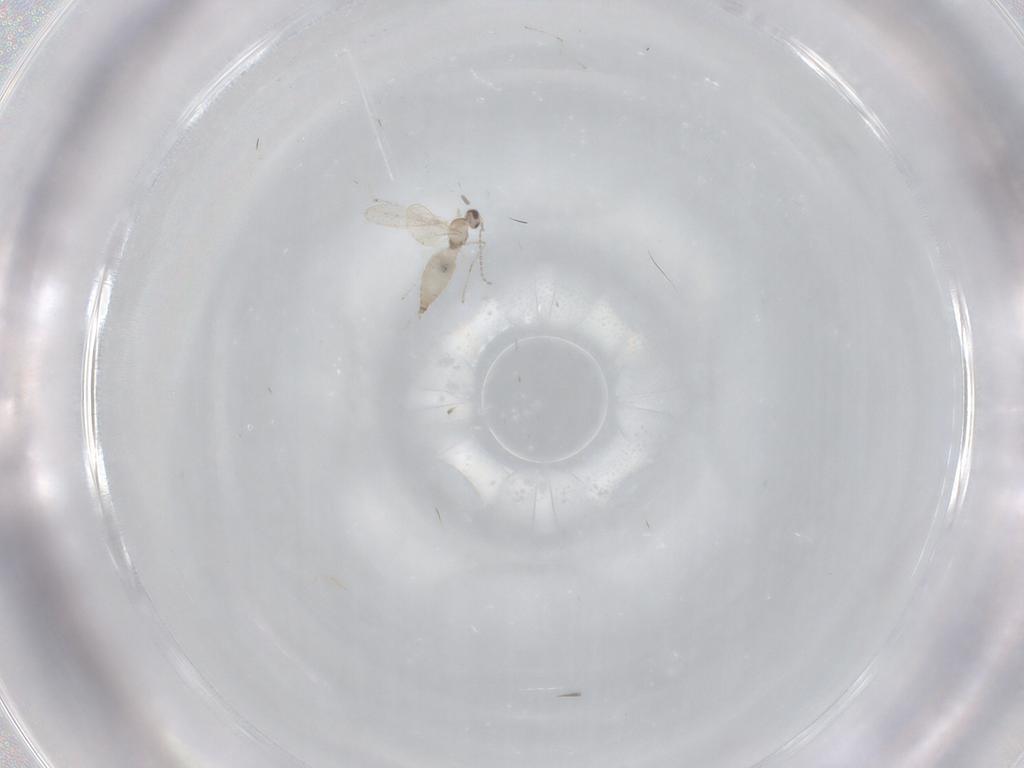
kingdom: Animalia
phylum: Arthropoda
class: Insecta
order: Diptera
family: Cecidomyiidae
